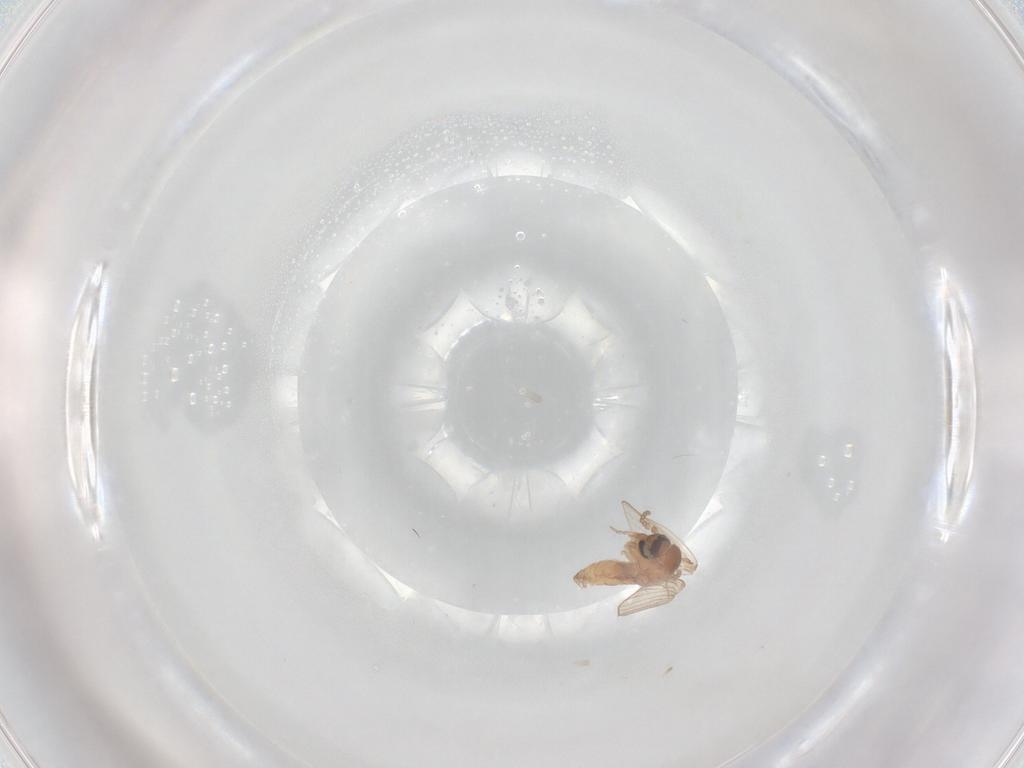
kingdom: Animalia
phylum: Arthropoda
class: Insecta
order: Diptera
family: Psychodidae
